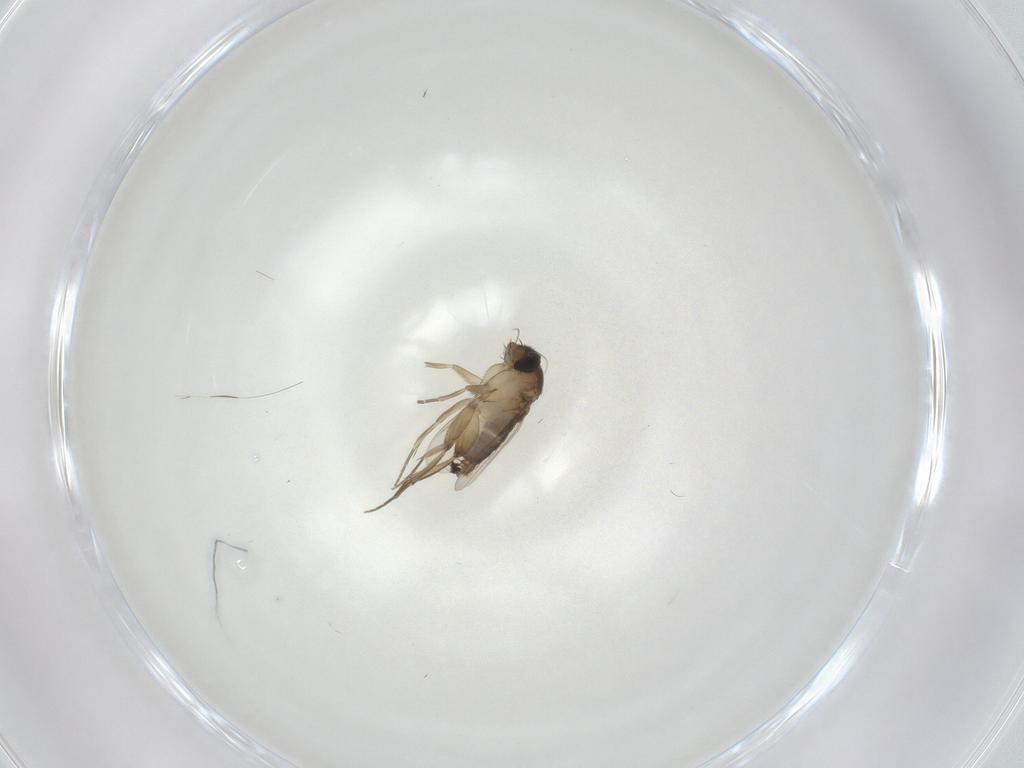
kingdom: Animalia
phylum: Arthropoda
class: Insecta
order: Diptera
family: Phoridae
